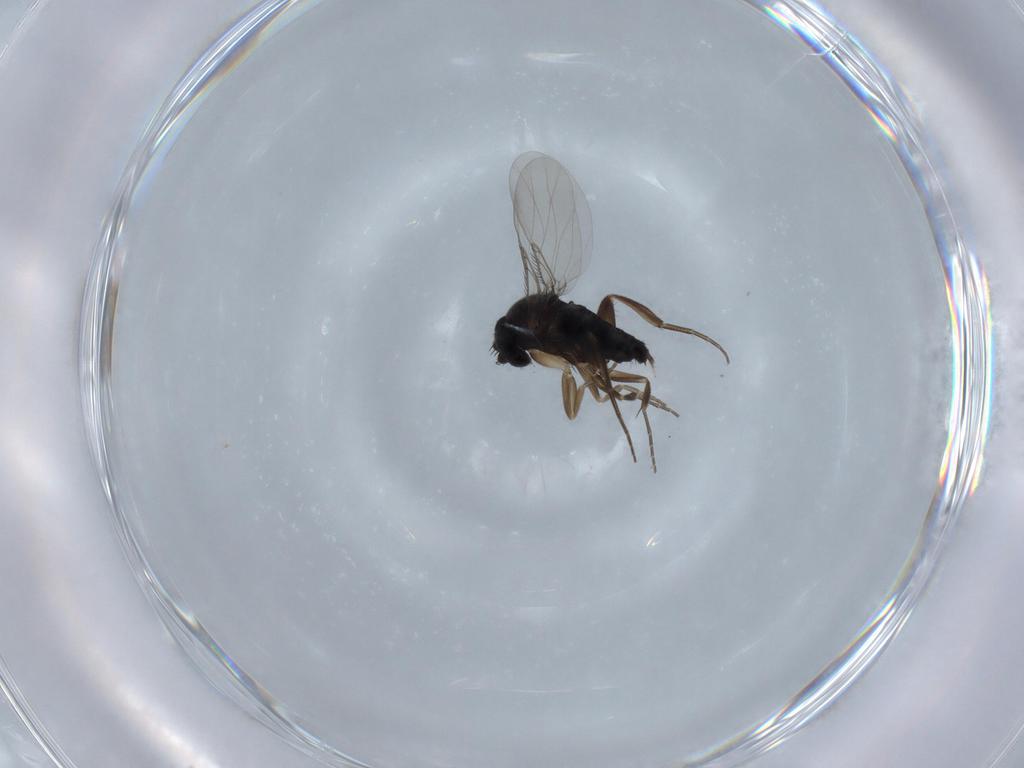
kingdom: Animalia
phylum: Arthropoda
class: Insecta
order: Diptera
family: Phoridae
